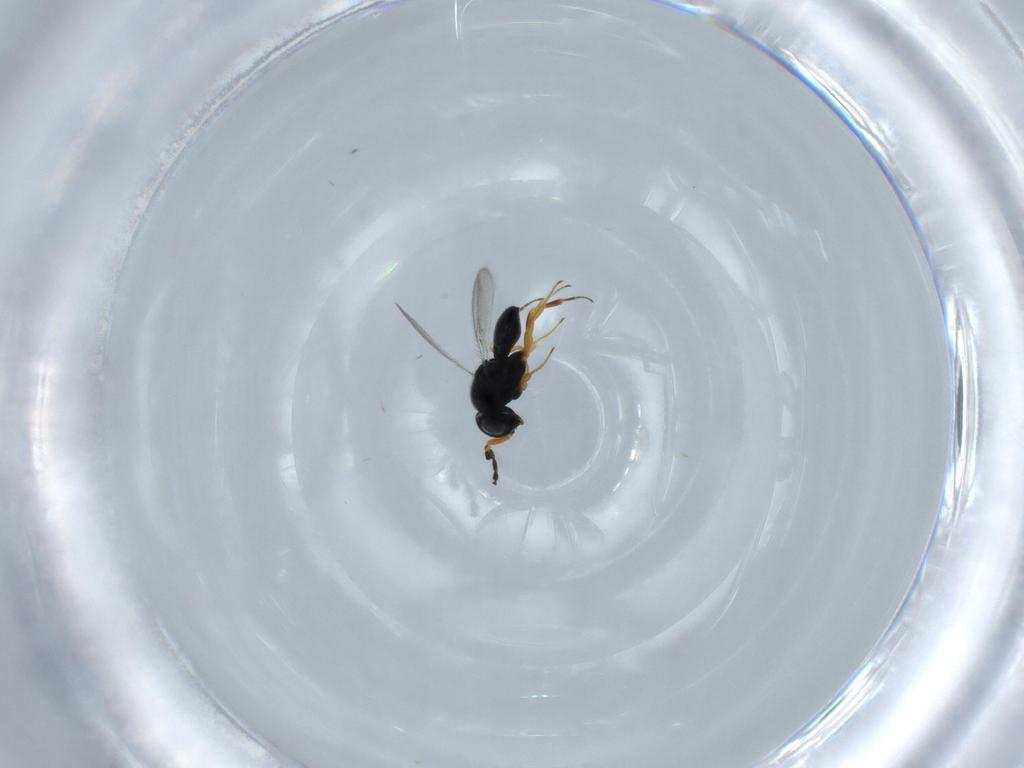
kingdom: Animalia
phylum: Arthropoda
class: Insecta
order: Hymenoptera
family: Scelionidae
